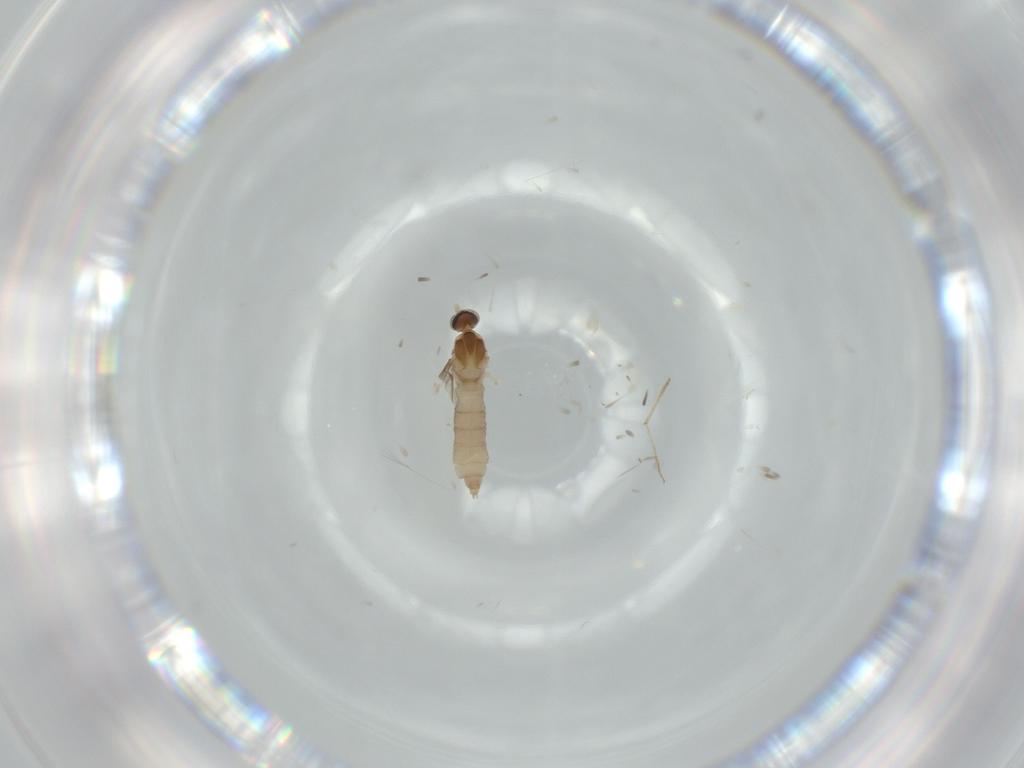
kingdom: Animalia
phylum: Arthropoda
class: Insecta
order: Diptera
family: Cecidomyiidae
